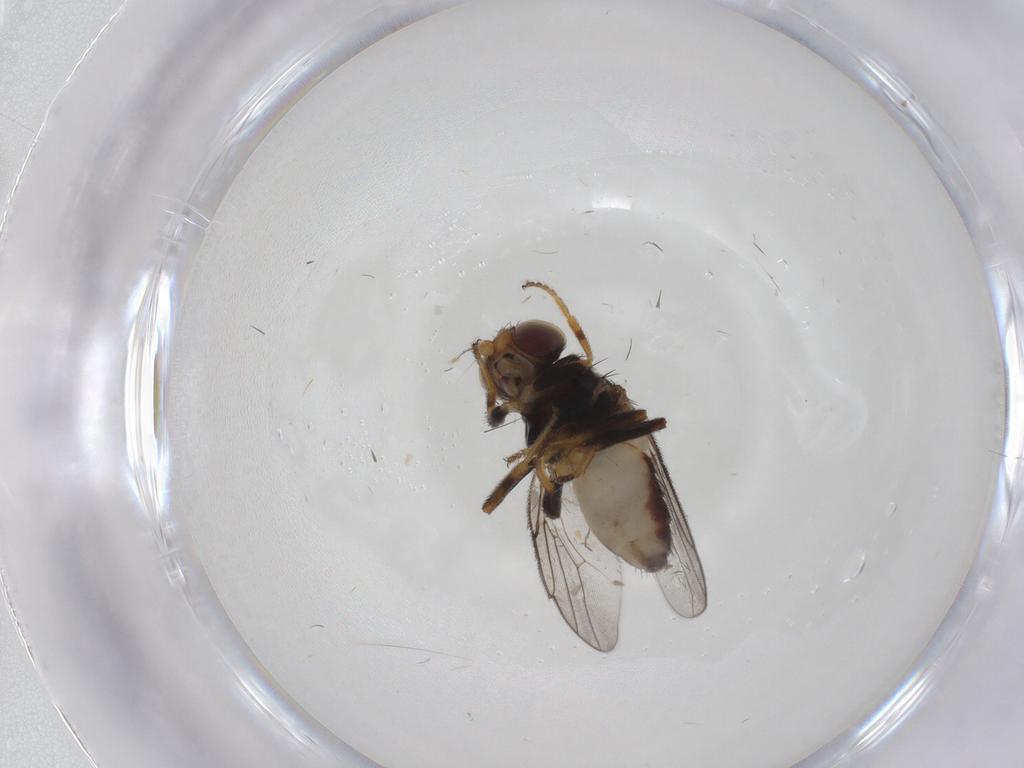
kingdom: Animalia
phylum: Arthropoda
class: Insecta
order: Diptera
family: Chloropidae
